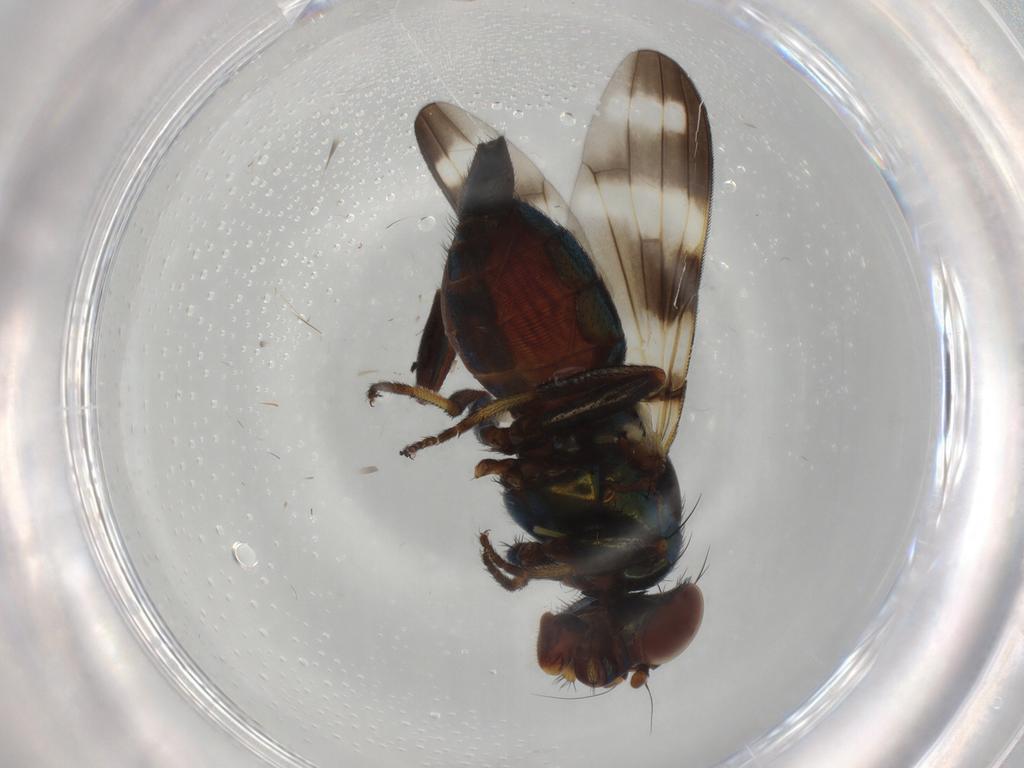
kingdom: Animalia
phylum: Arthropoda
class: Insecta
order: Diptera
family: Ulidiidae
